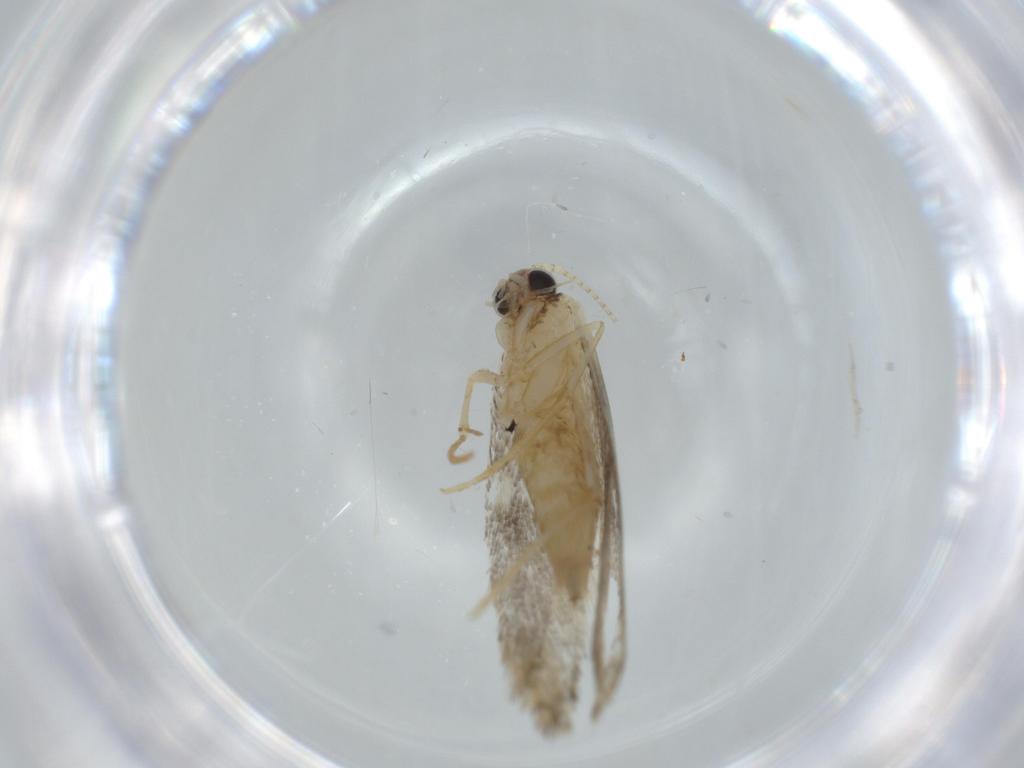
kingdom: Animalia
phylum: Arthropoda
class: Insecta
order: Lepidoptera
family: Tineidae
